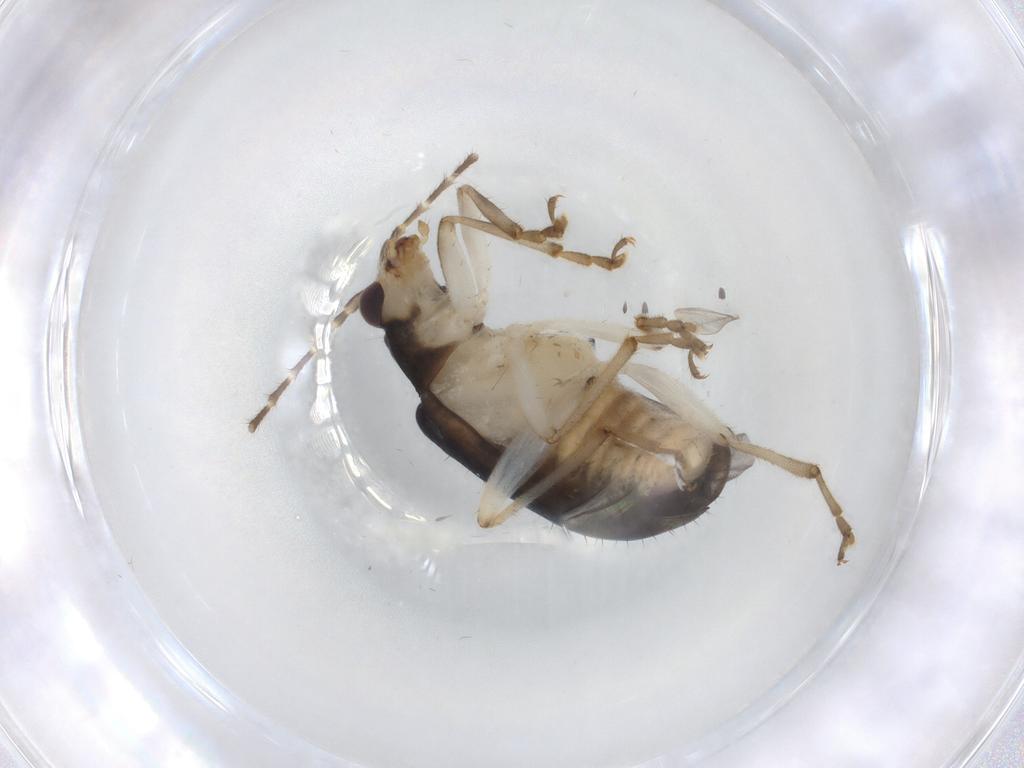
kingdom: Animalia
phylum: Arthropoda
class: Insecta
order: Coleoptera
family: Chrysomelidae
